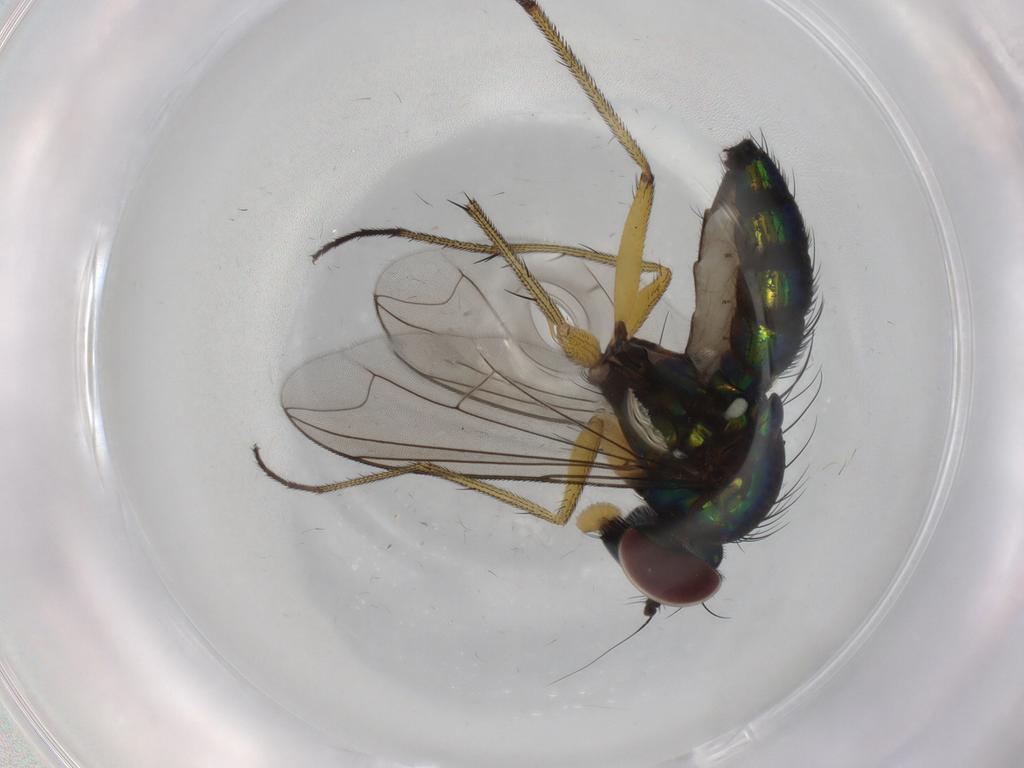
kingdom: Animalia
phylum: Arthropoda
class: Insecta
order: Diptera
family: Dolichopodidae
